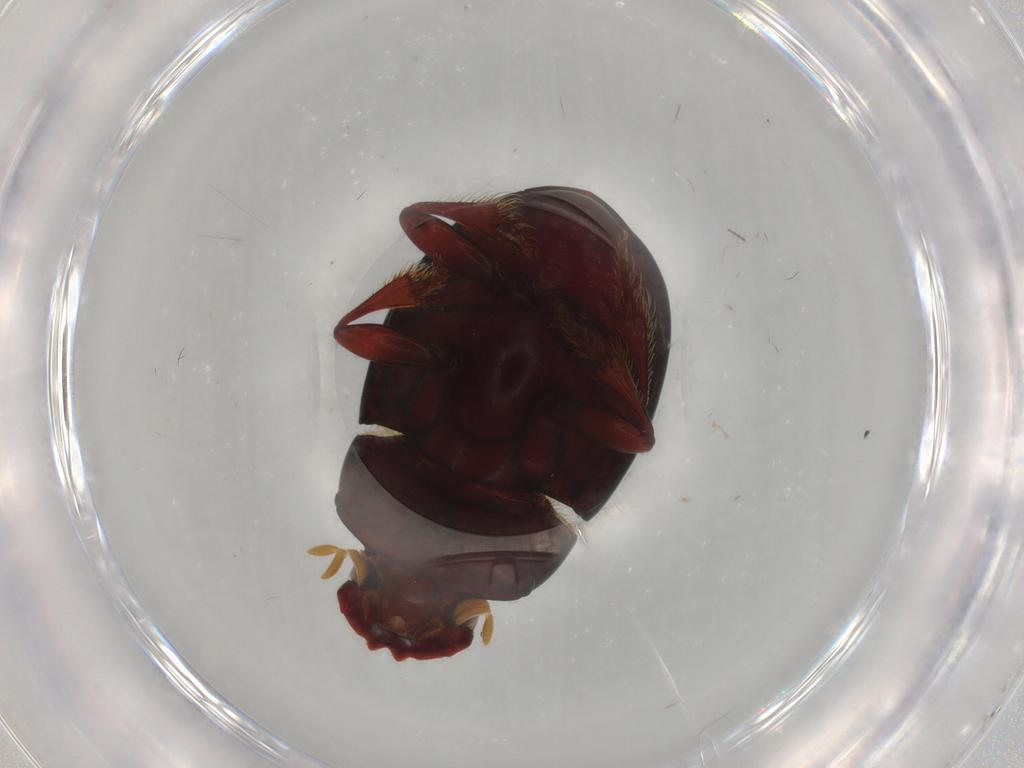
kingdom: Animalia
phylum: Arthropoda
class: Insecta
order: Coleoptera
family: Scarabaeidae
